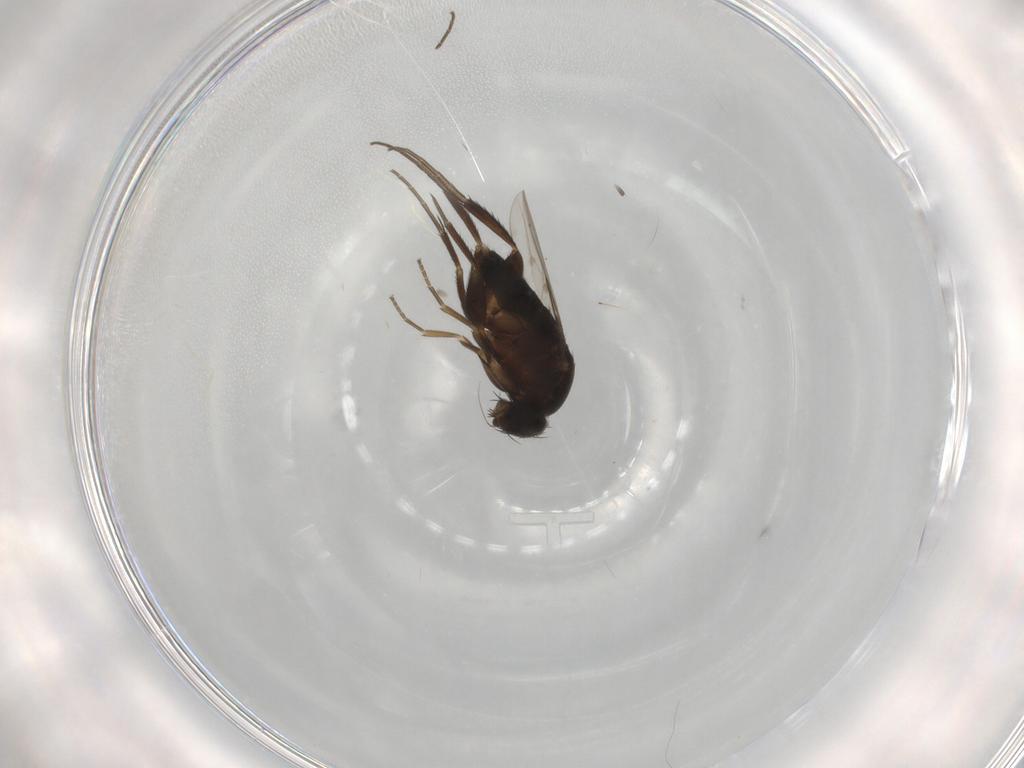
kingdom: Animalia
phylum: Arthropoda
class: Insecta
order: Diptera
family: Phoridae
